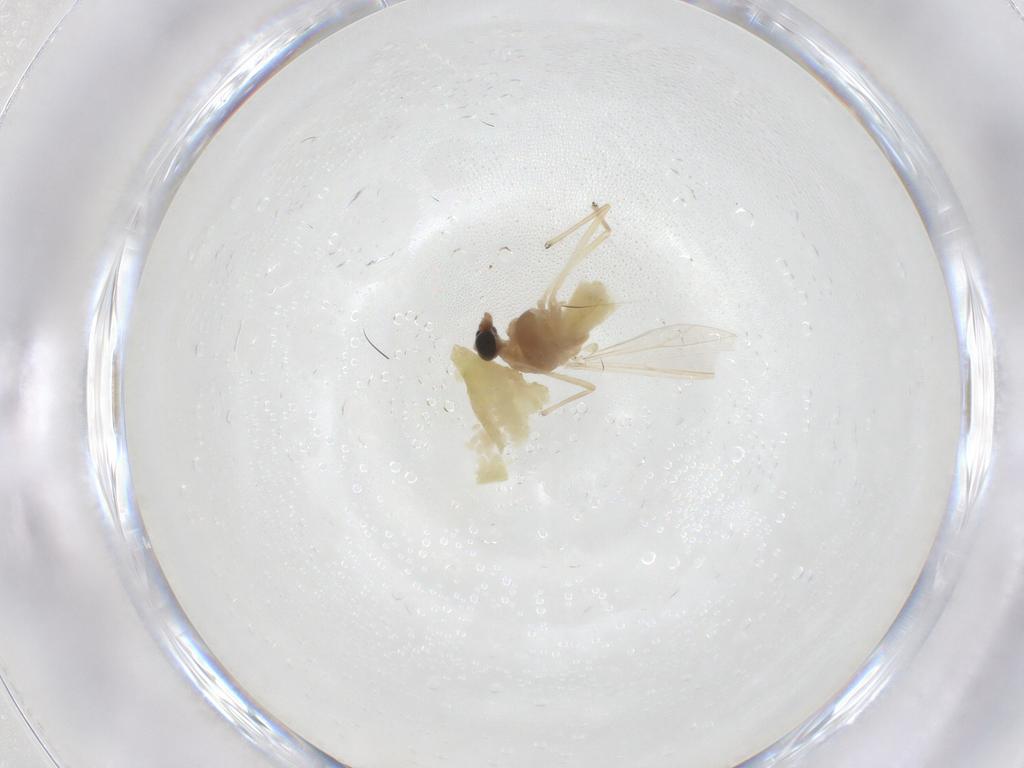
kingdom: Animalia
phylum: Arthropoda
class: Insecta
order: Diptera
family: Chironomidae
